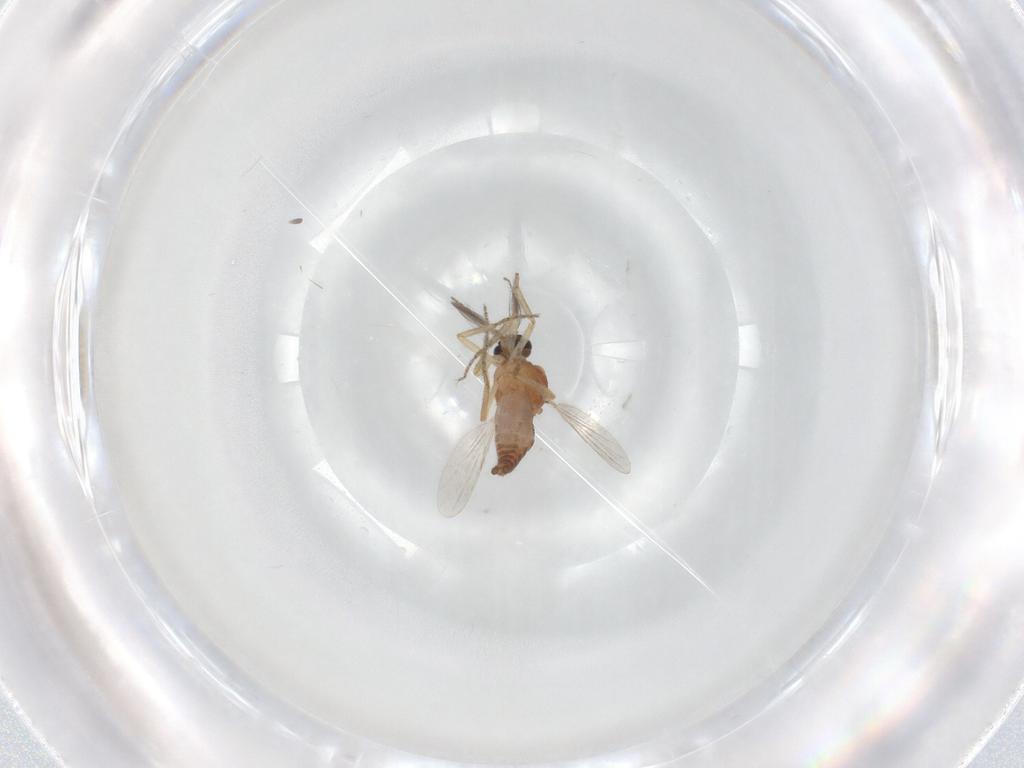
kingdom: Animalia
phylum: Arthropoda
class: Insecta
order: Diptera
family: Ceratopogonidae
